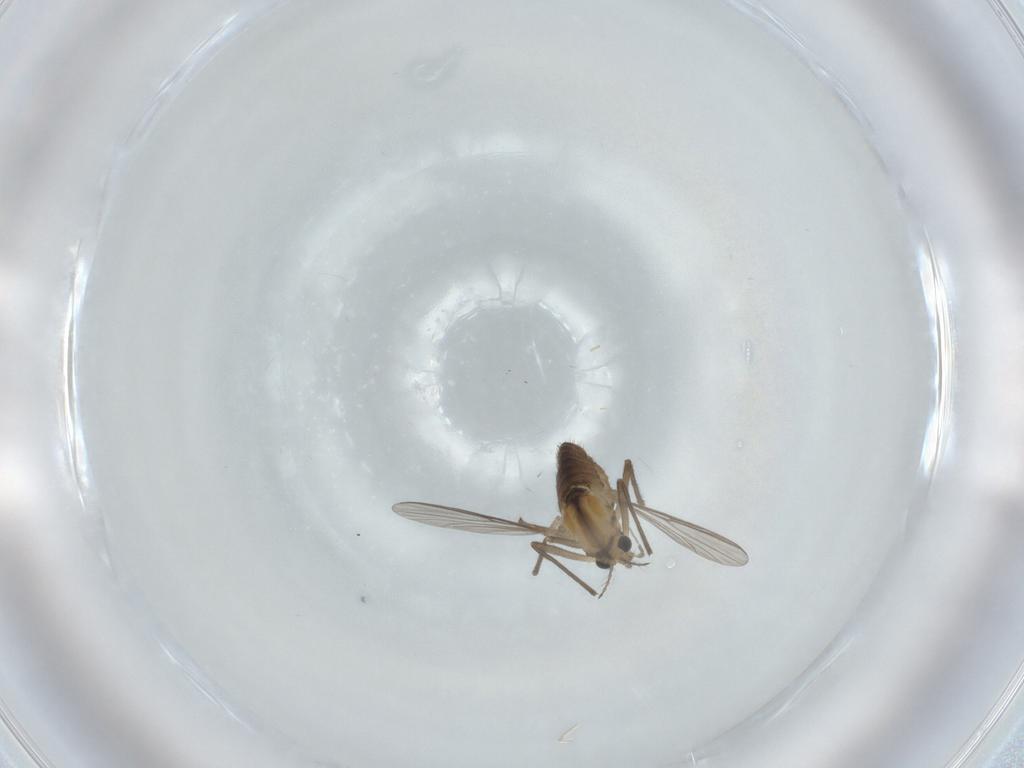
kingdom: Animalia
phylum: Arthropoda
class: Insecta
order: Diptera
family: Chironomidae
